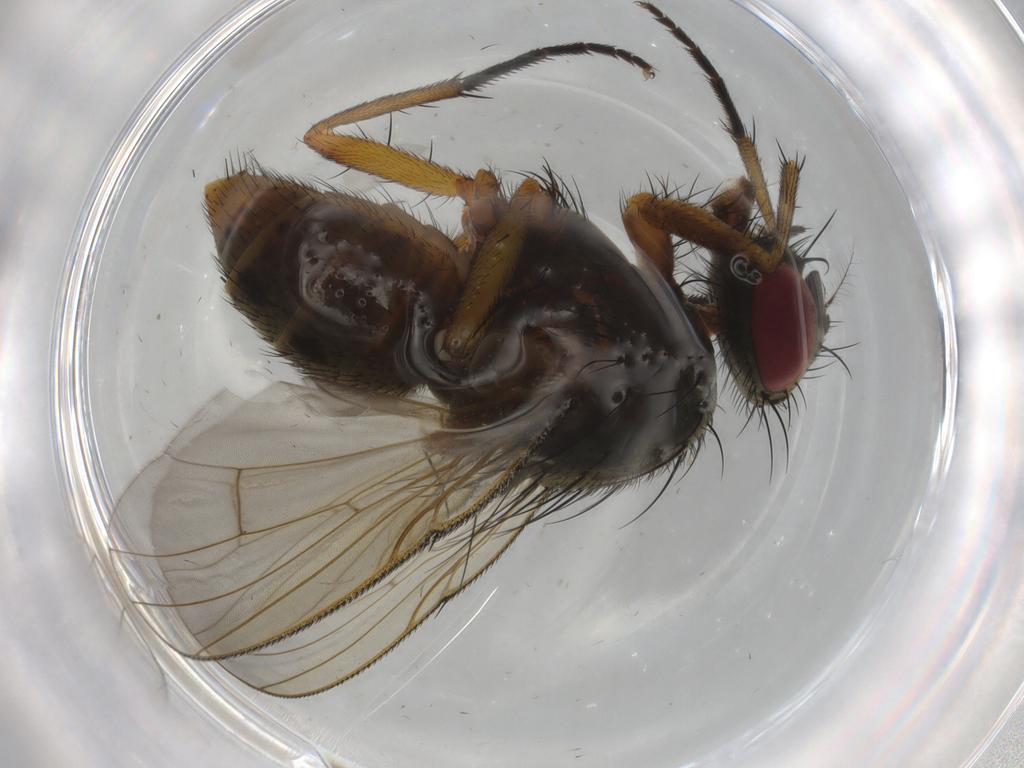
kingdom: Animalia
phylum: Arthropoda
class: Insecta
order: Diptera
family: Muscidae
